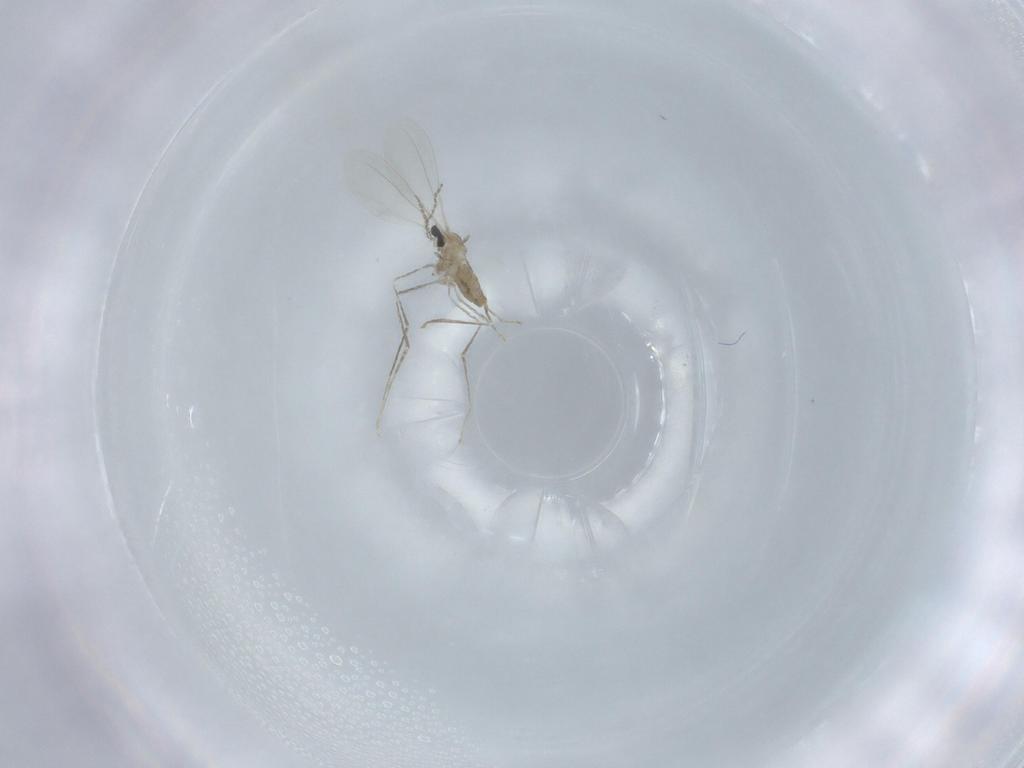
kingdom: Animalia
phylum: Arthropoda
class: Insecta
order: Diptera
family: Cecidomyiidae
